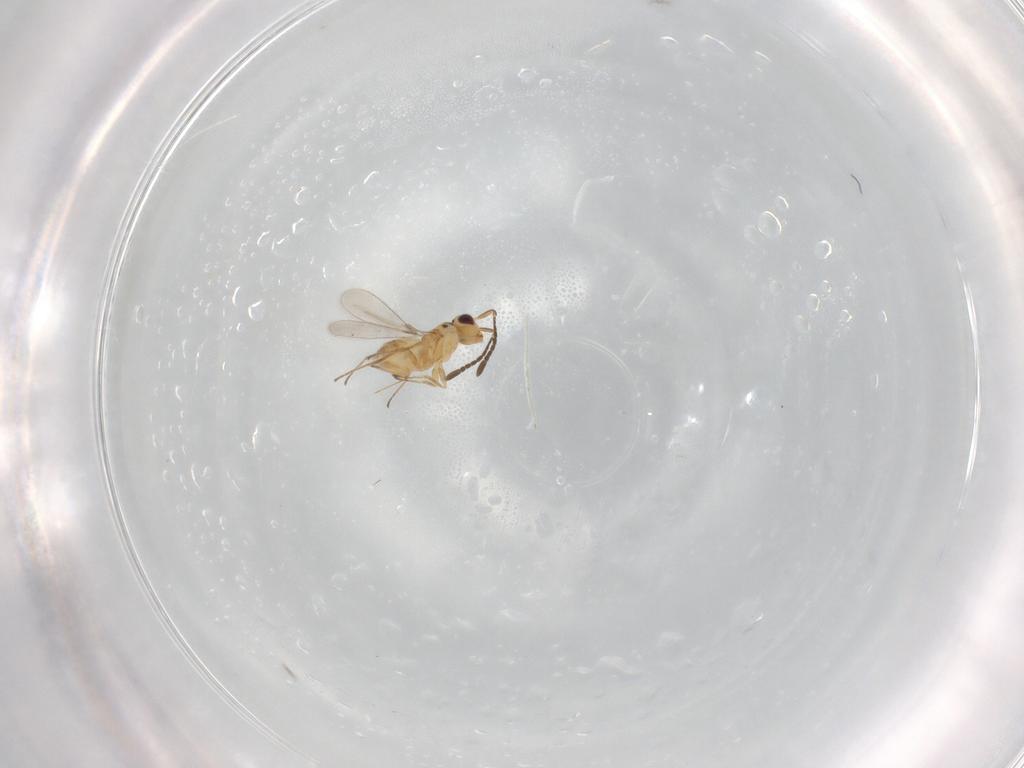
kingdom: Animalia
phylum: Arthropoda
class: Insecta
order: Hymenoptera
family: Mymaridae
